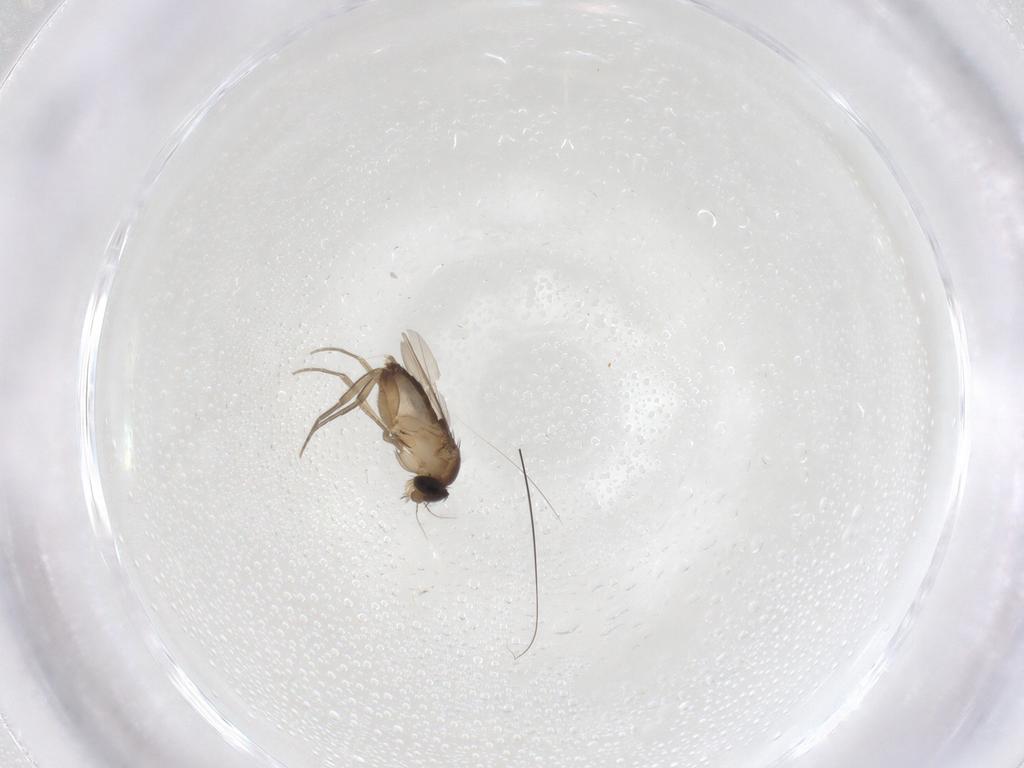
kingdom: Animalia
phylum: Arthropoda
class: Insecta
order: Diptera
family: Phoridae
